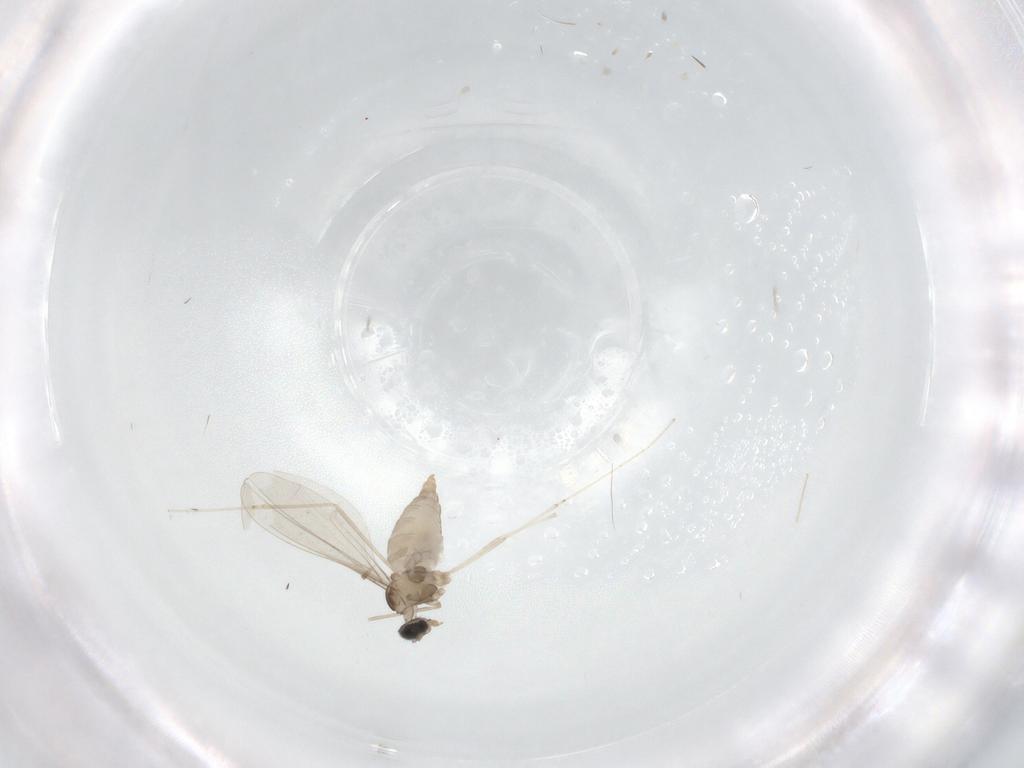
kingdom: Animalia
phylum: Arthropoda
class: Insecta
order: Diptera
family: Cecidomyiidae
